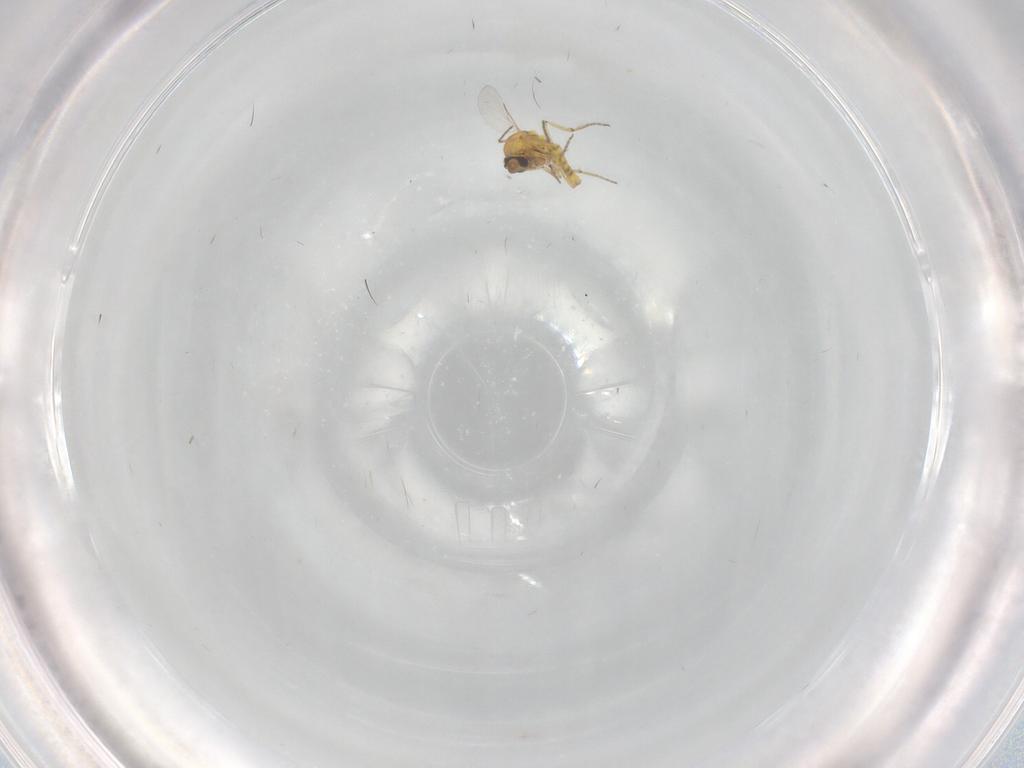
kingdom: Animalia
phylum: Arthropoda
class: Insecta
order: Diptera
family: Ceratopogonidae
